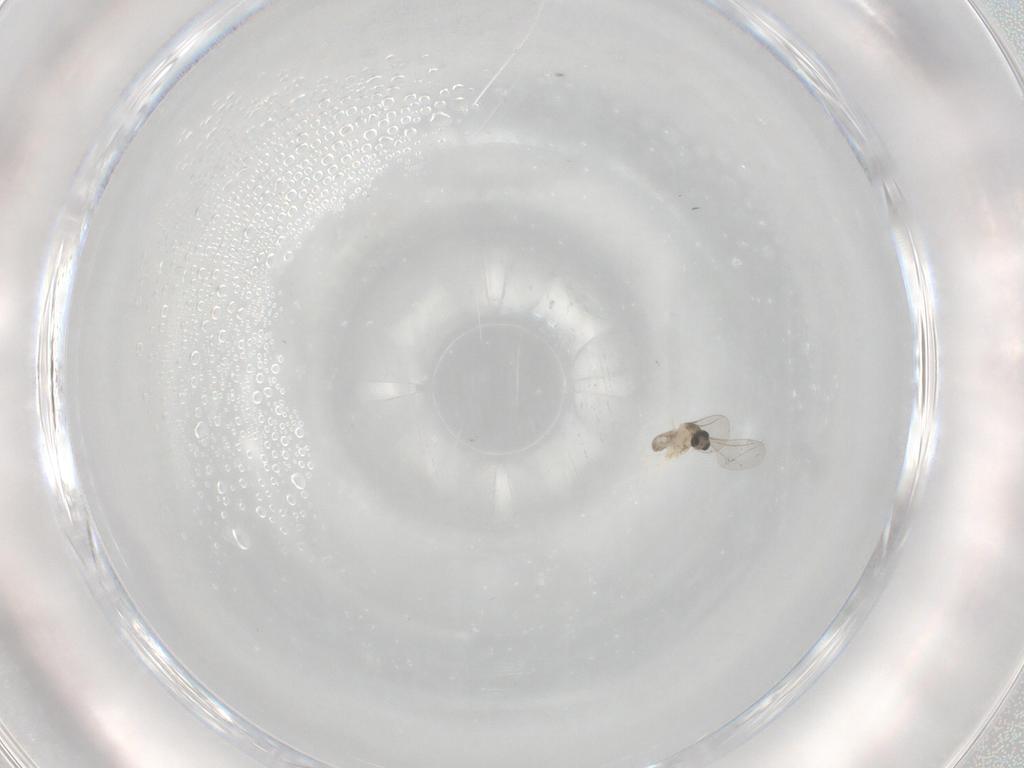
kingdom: Animalia
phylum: Arthropoda
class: Insecta
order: Diptera
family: Cecidomyiidae
